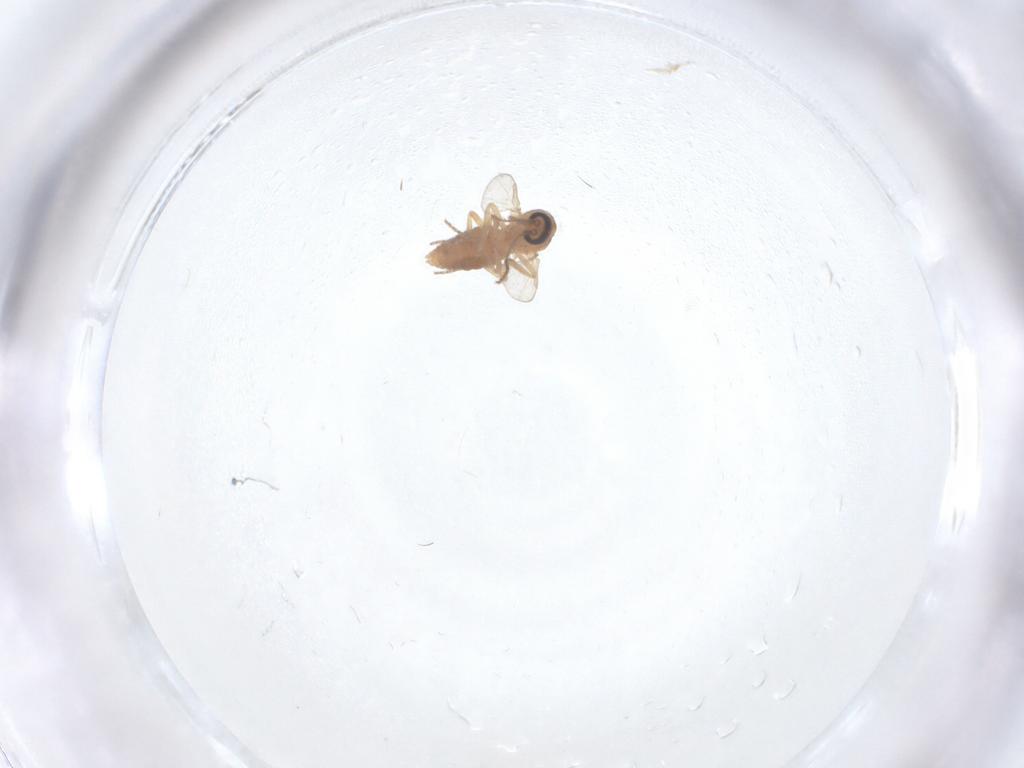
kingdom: Animalia
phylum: Arthropoda
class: Insecta
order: Diptera
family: Ceratopogonidae
